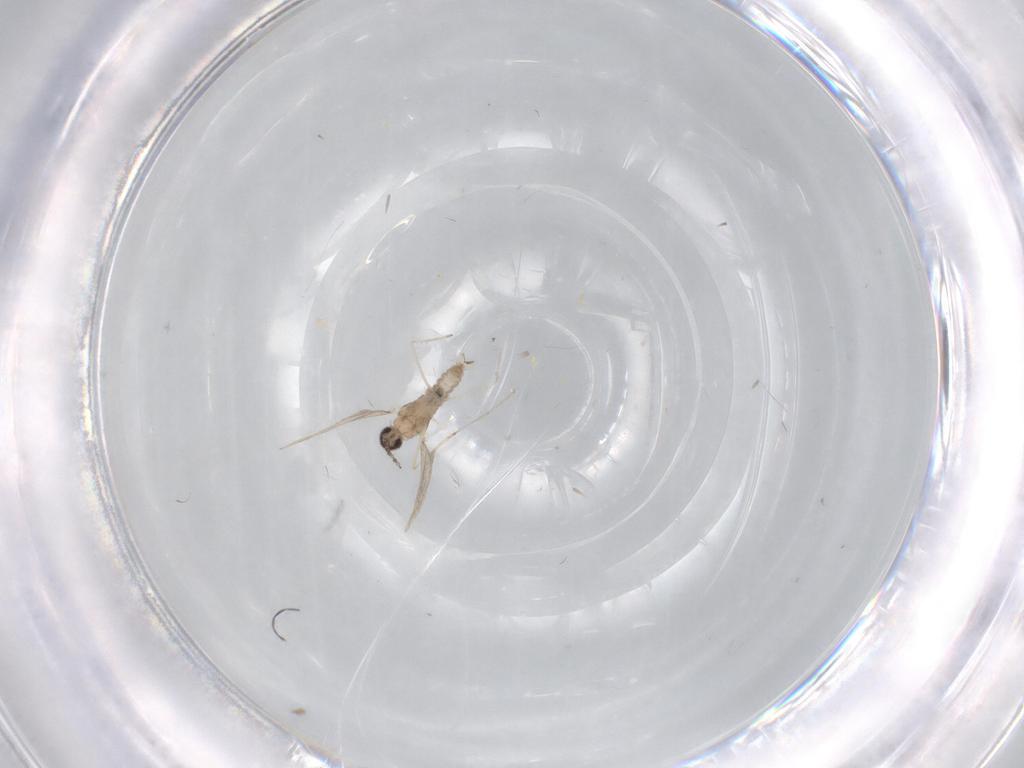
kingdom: Animalia
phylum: Arthropoda
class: Insecta
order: Diptera
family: Cecidomyiidae
